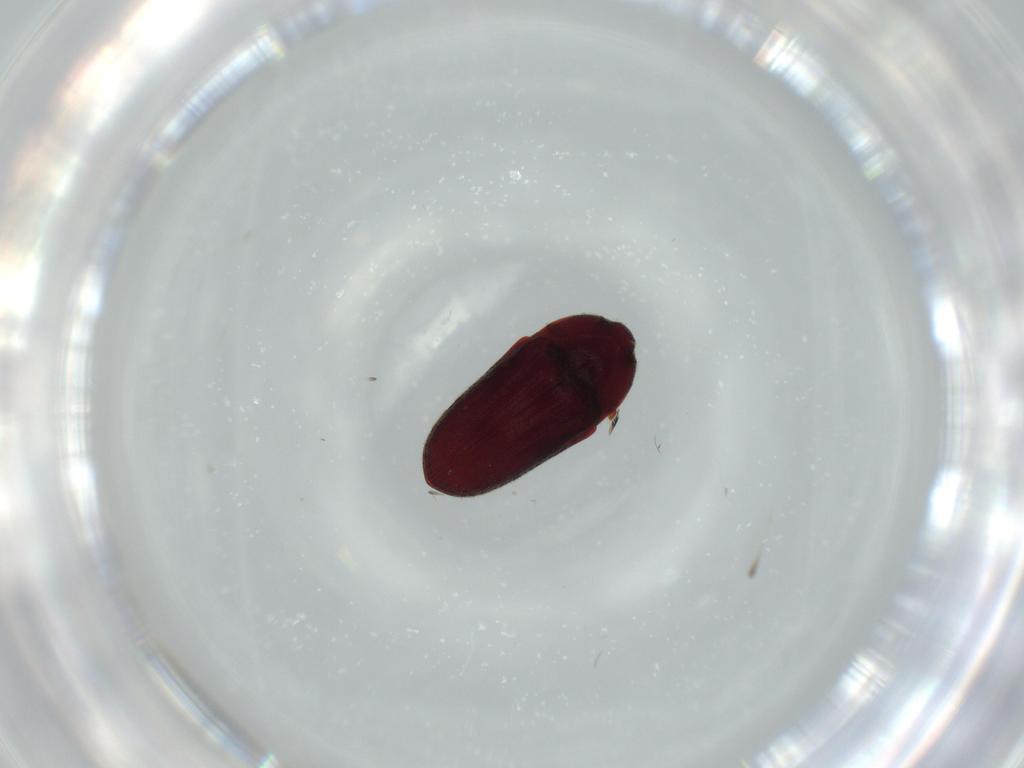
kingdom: Animalia
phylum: Arthropoda
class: Insecta
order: Coleoptera
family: Throscidae
